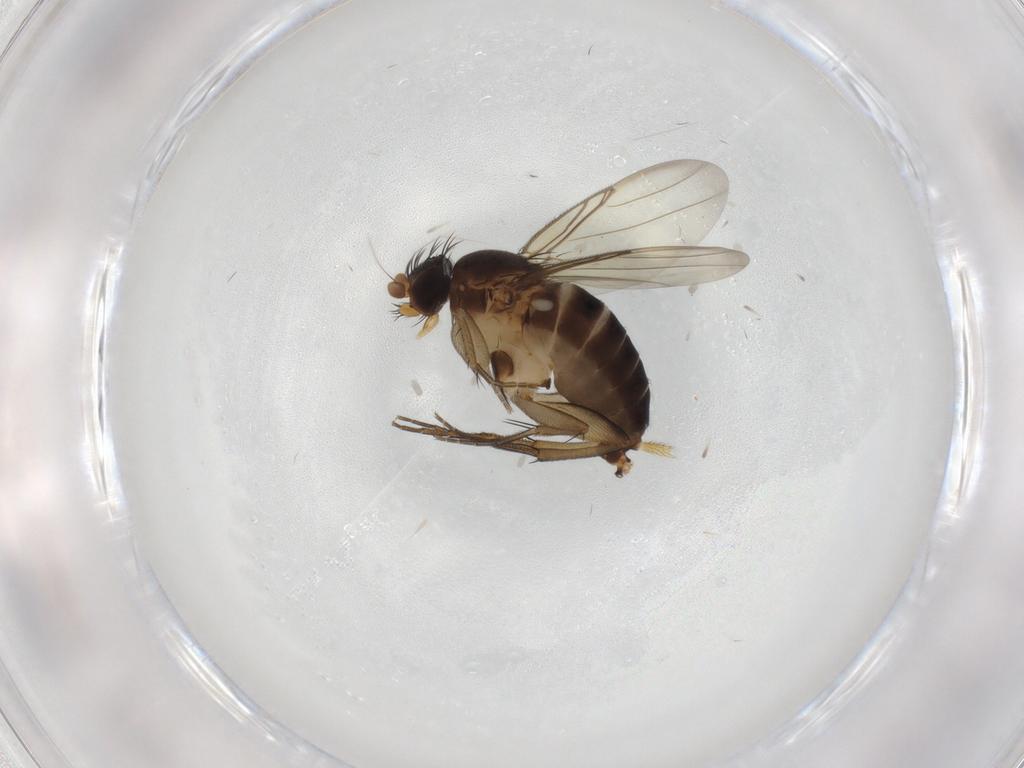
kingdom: Animalia
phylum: Arthropoda
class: Insecta
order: Diptera
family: Phoridae
